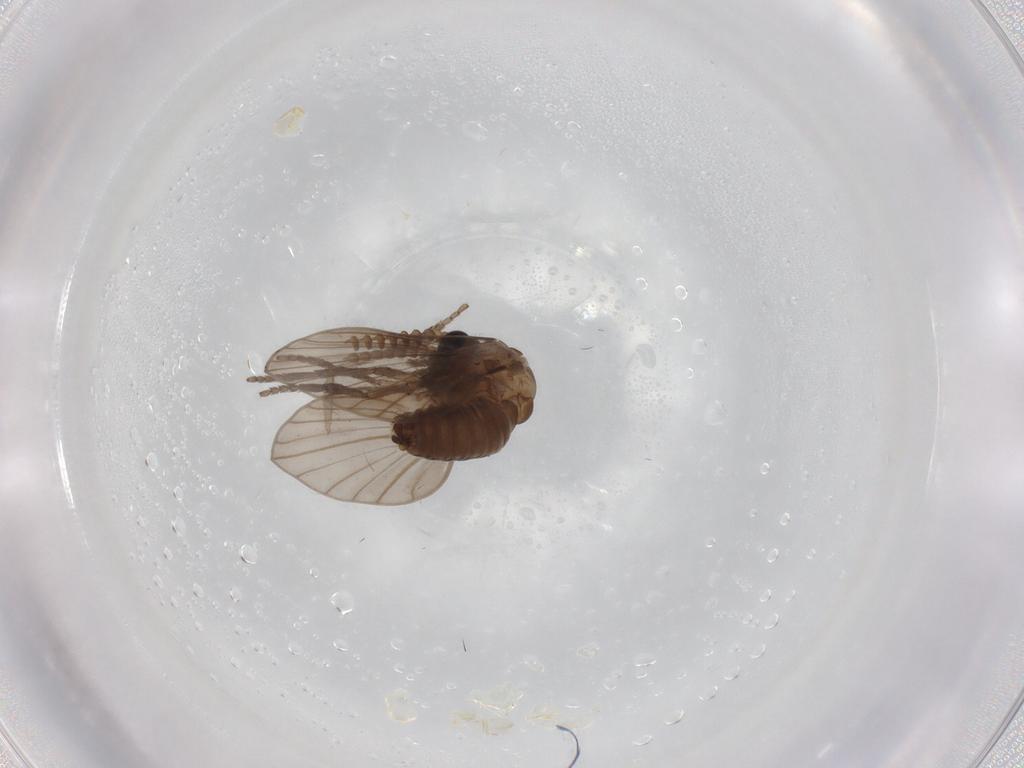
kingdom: Animalia
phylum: Arthropoda
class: Insecta
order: Diptera
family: Psychodidae
